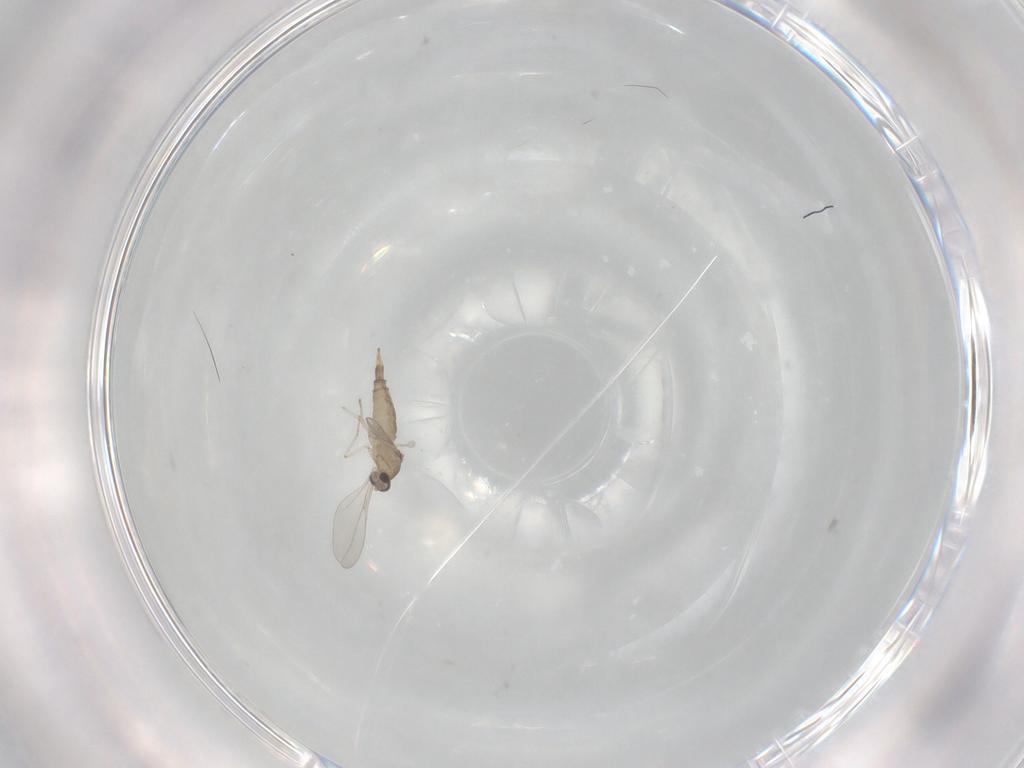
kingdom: Animalia
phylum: Arthropoda
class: Insecta
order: Diptera
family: Cecidomyiidae
